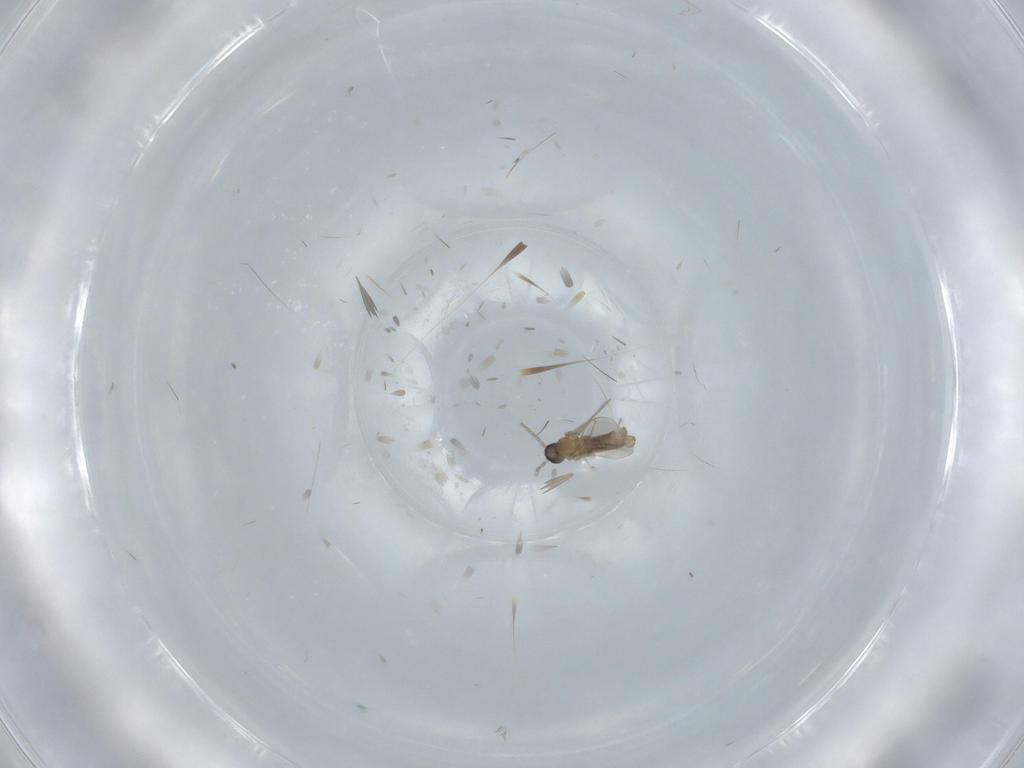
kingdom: Animalia
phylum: Arthropoda
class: Insecta
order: Diptera
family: Cecidomyiidae
